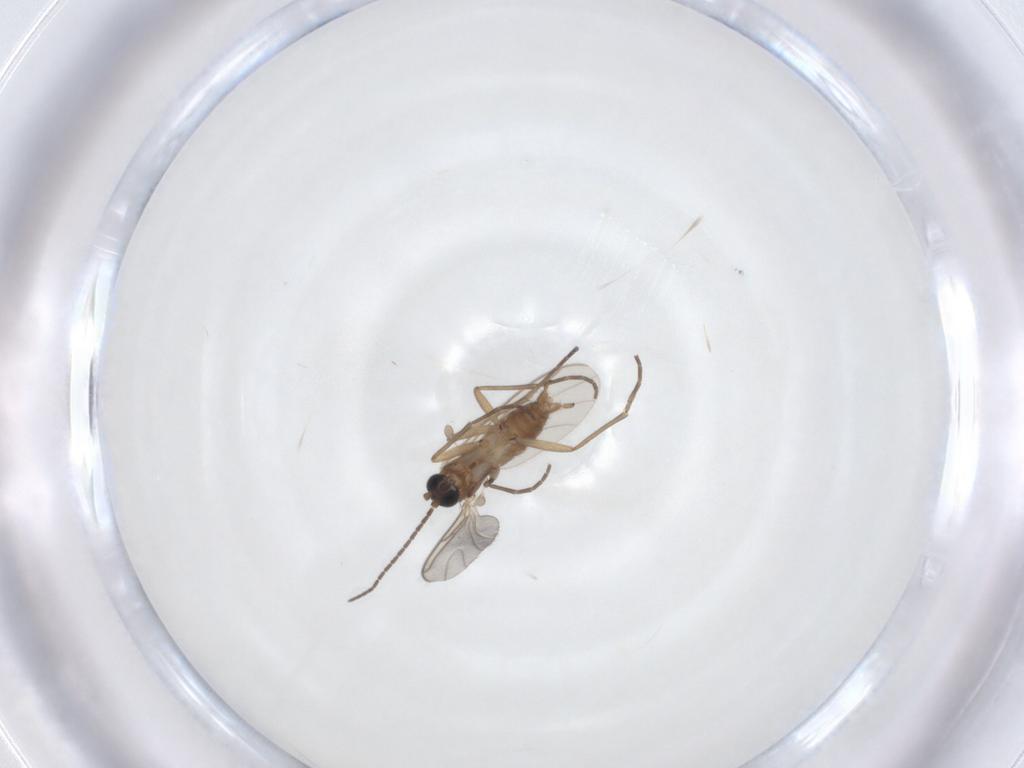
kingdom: Animalia
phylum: Arthropoda
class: Insecta
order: Diptera
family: Sciaridae
